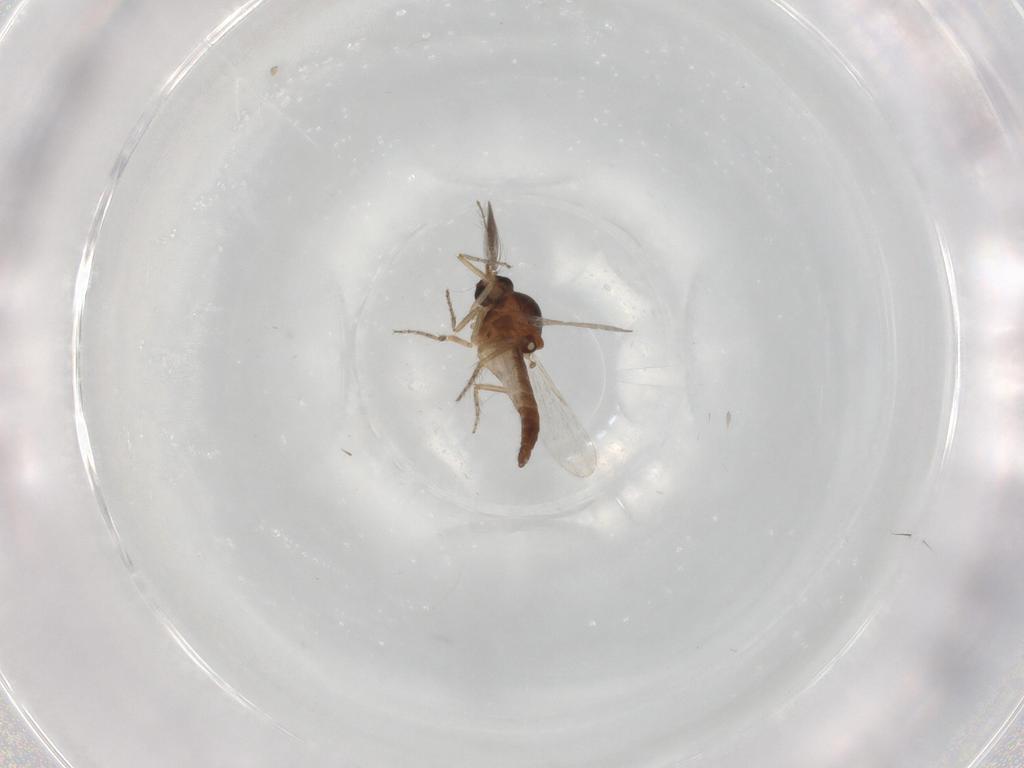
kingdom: Animalia
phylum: Arthropoda
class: Insecta
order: Diptera
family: Ceratopogonidae
